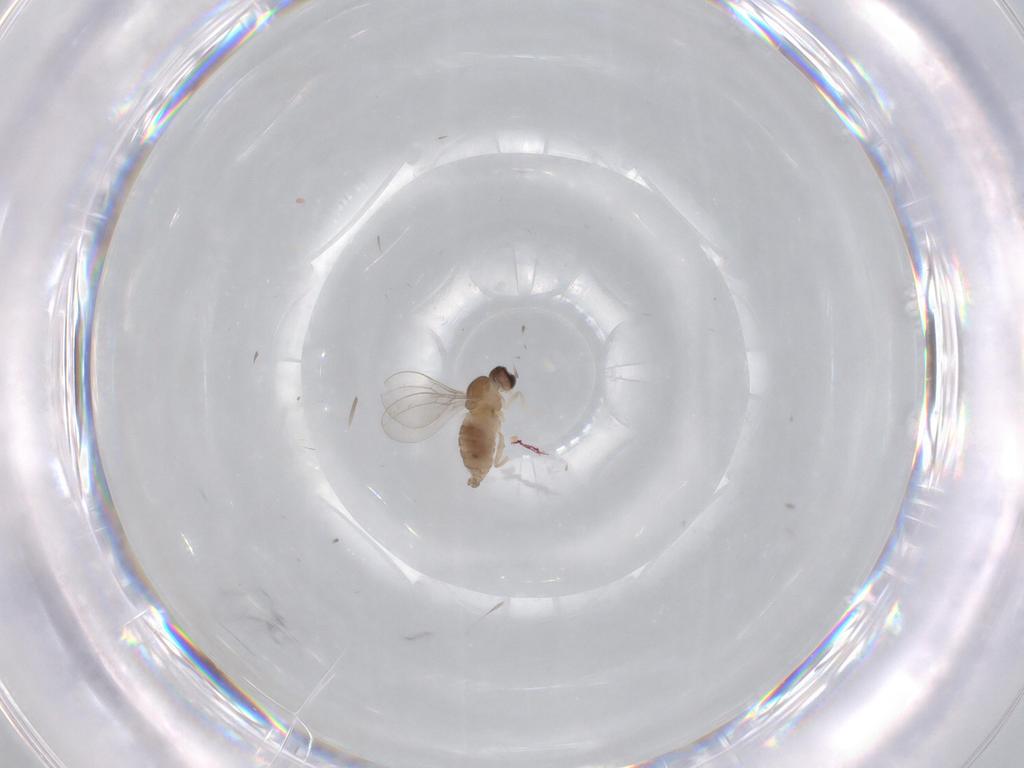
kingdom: Animalia
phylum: Arthropoda
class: Insecta
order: Diptera
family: Cecidomyiidae
